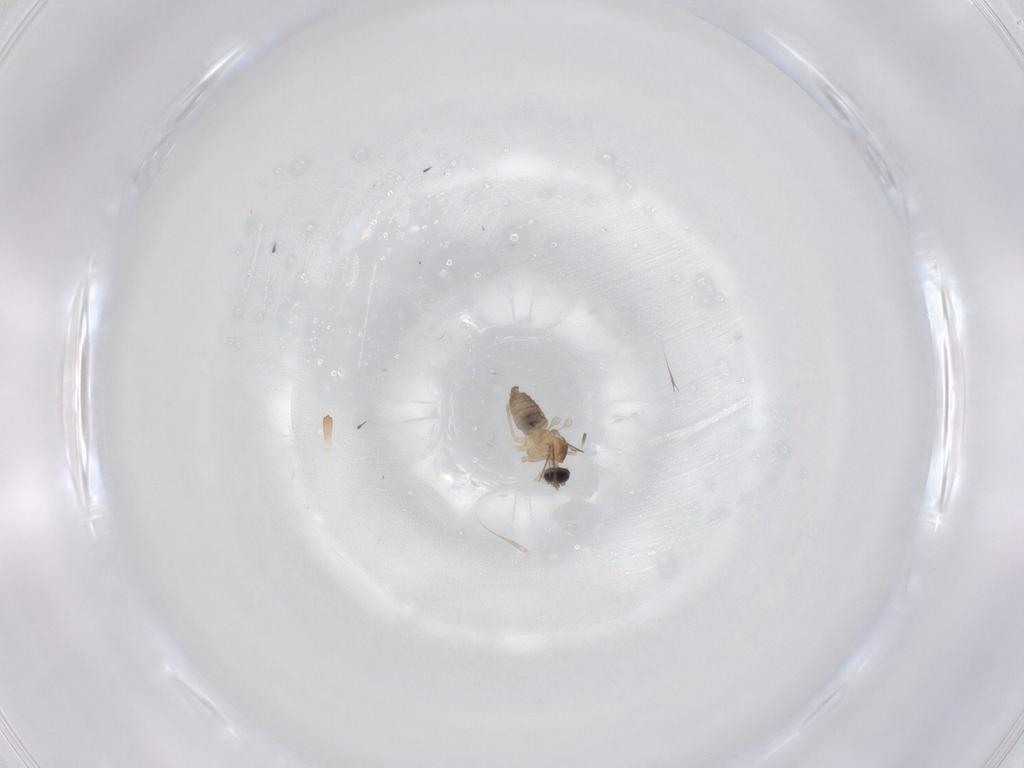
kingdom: Animalia
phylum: Arthropoda
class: Insecta
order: Diptera
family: Cecidomyiidae
